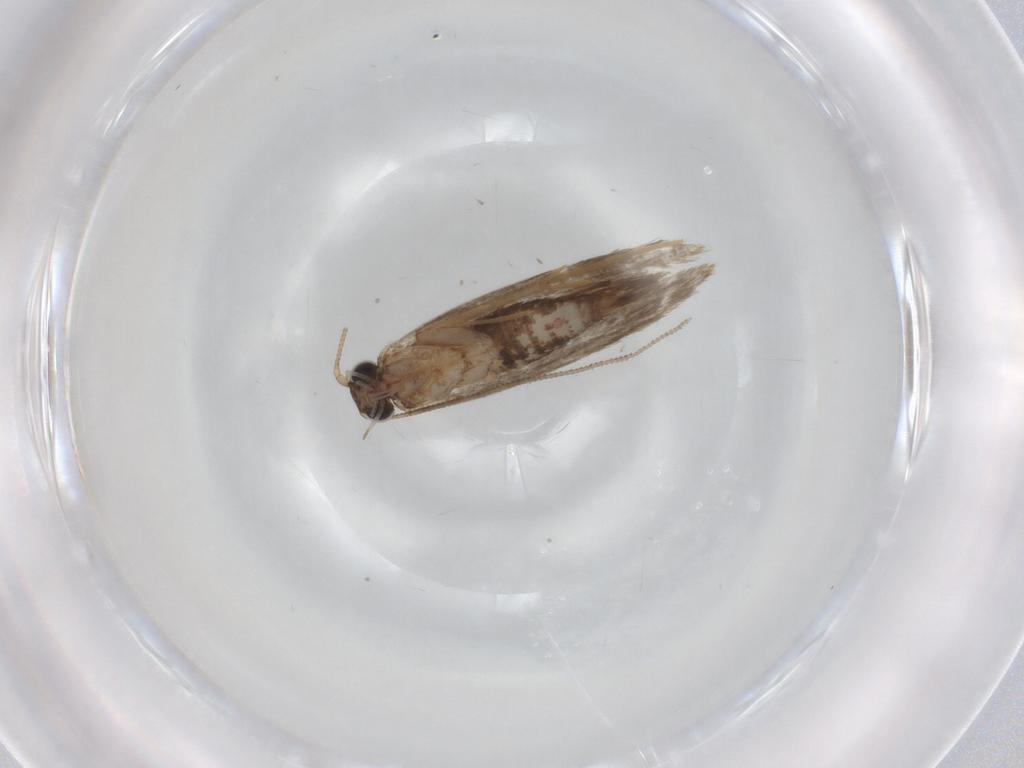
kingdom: Animalia
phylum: Arthropoda
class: Insecta
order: Lepidoptera
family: Tineidae
